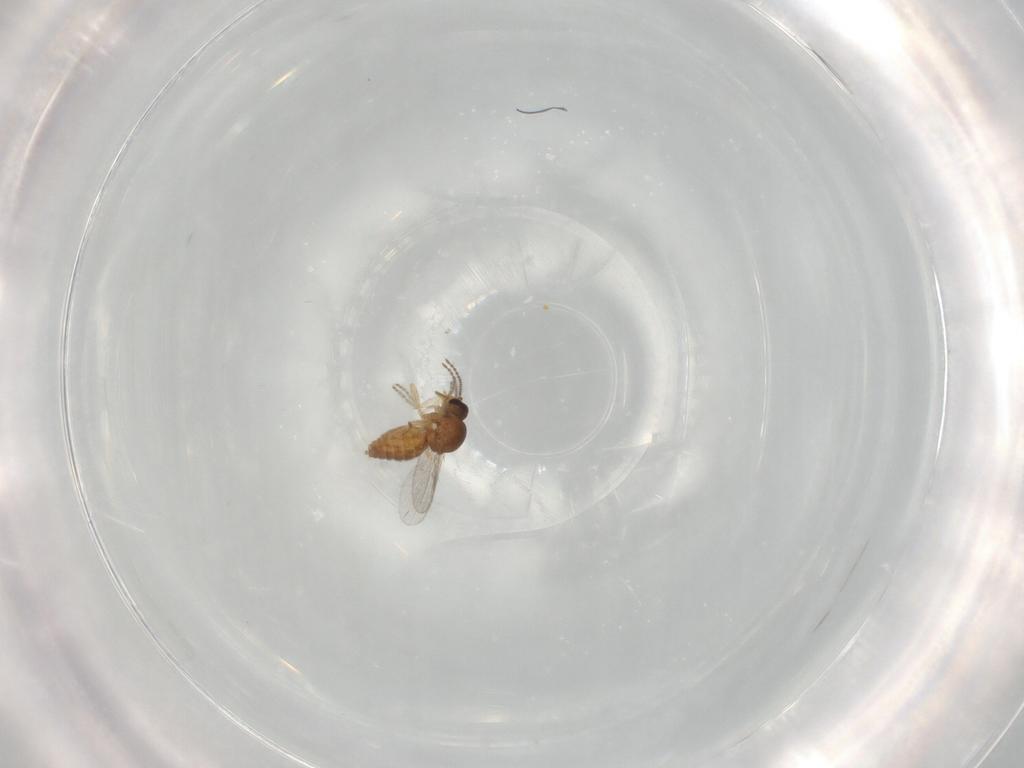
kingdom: Animalia
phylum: Arthropoda
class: Insecta
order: Diptera
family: Ceratopogonidae
